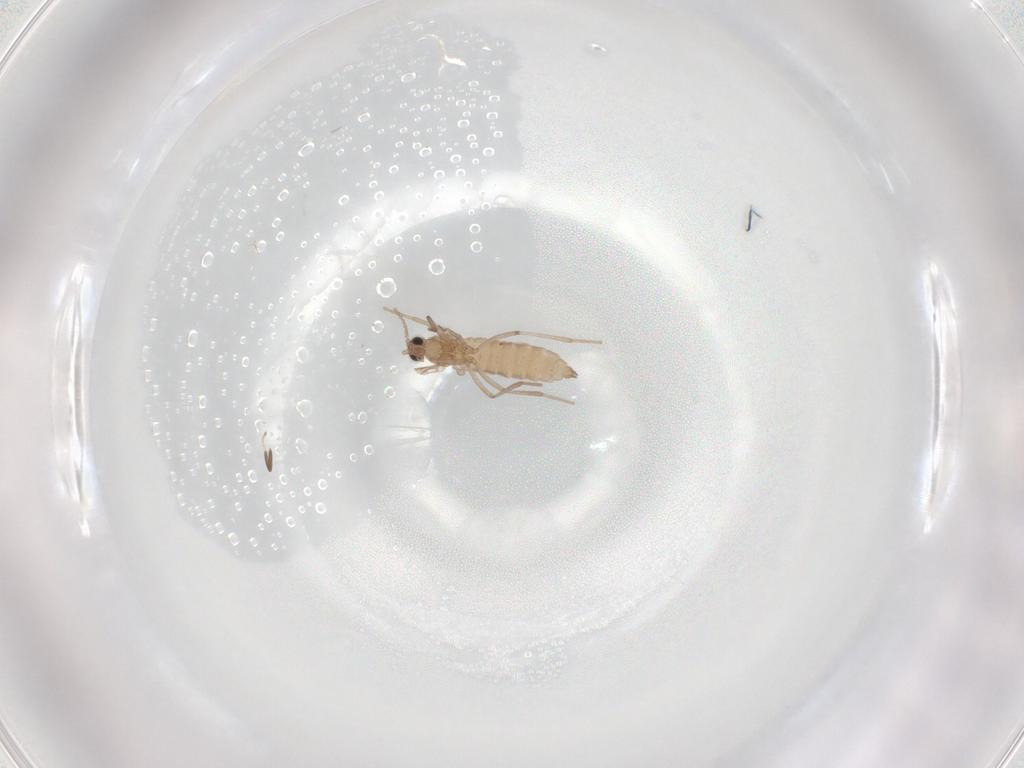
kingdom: Animalia
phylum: Arthropoda
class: Insecta
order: Diptera
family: Cecidomyiidae
